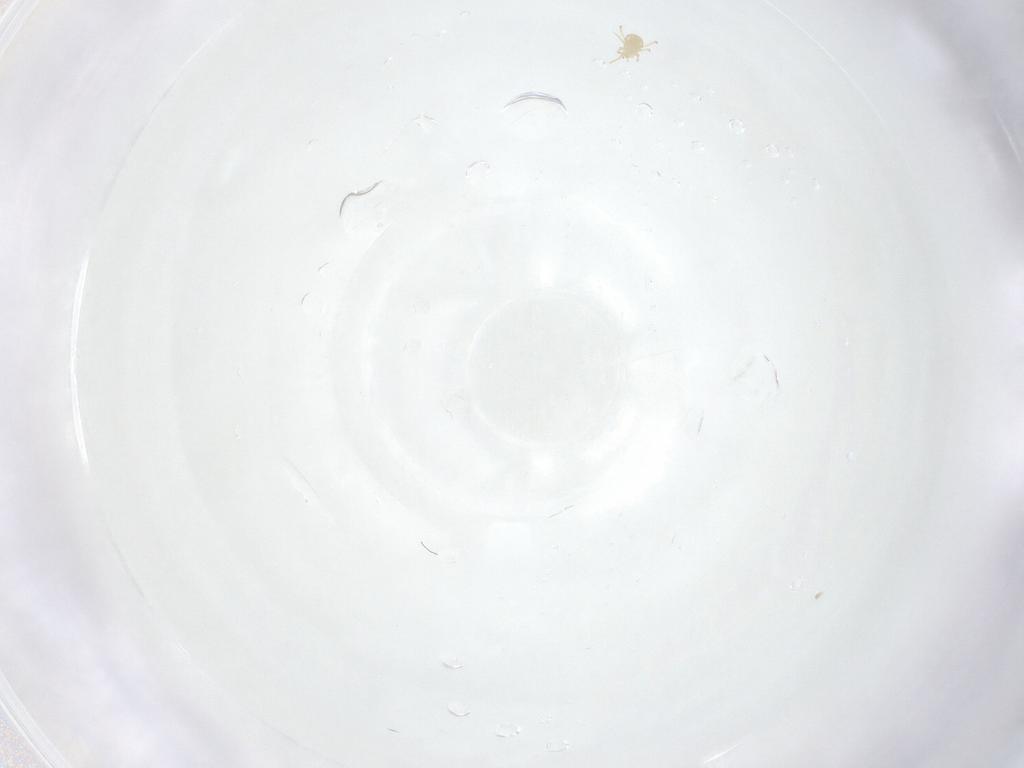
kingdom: Animalia
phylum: Arthropoda
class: Arachnida
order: Mesostigmata
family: Phytoseiidae
